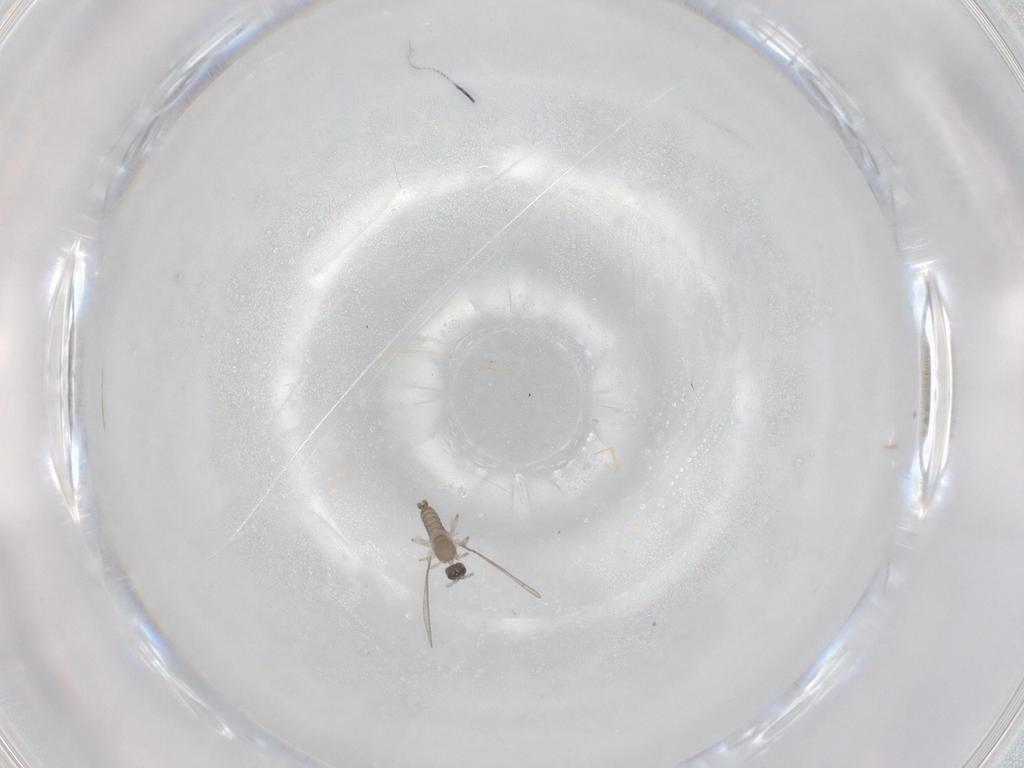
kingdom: Animalia
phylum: Arthropoda
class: Insecta
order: Diptera
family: Cecidomyiidae
